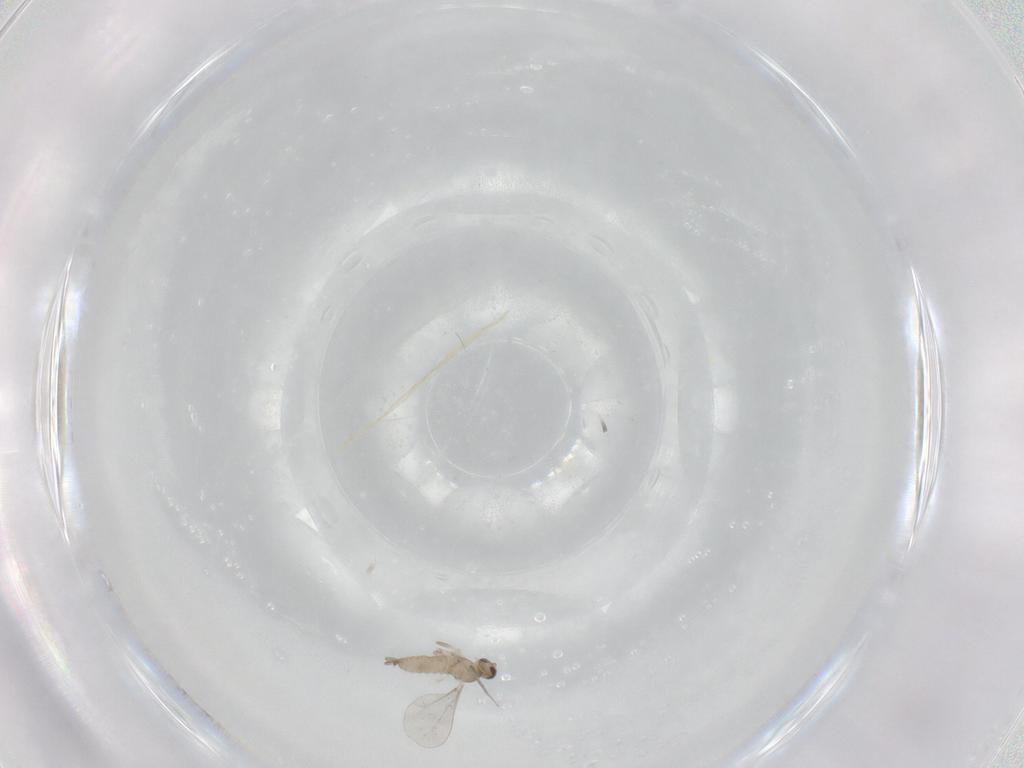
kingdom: Animalia
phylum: Arthropoda
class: Insecta
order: Diptera
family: Psychodidae
